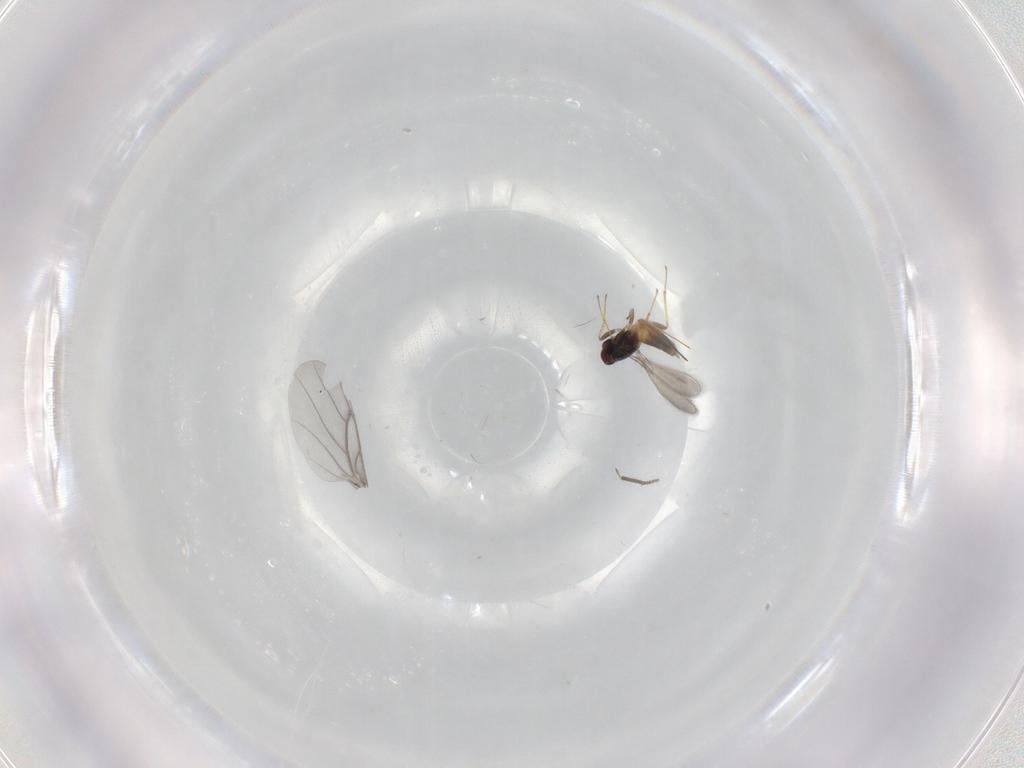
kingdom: Animalia
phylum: Arthropoda
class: Insecta
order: Hymenoptera
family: Mymaridae
